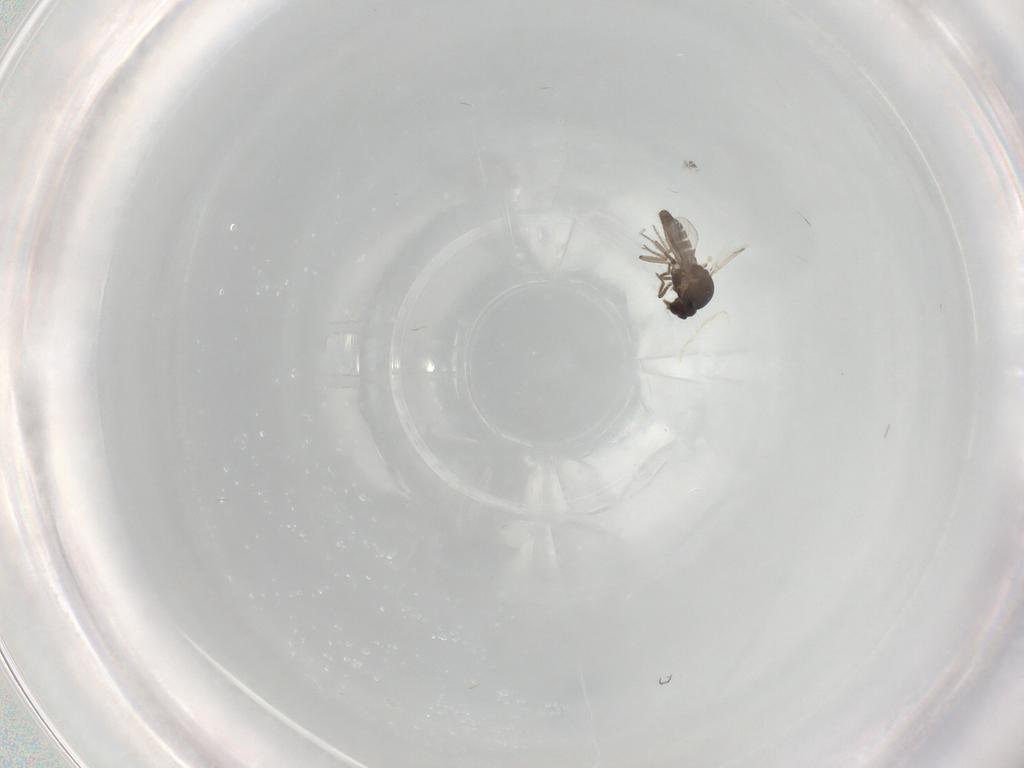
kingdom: Animalia
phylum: Arthropoda
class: Insecta
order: Diptera
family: Ceratopogonidae
